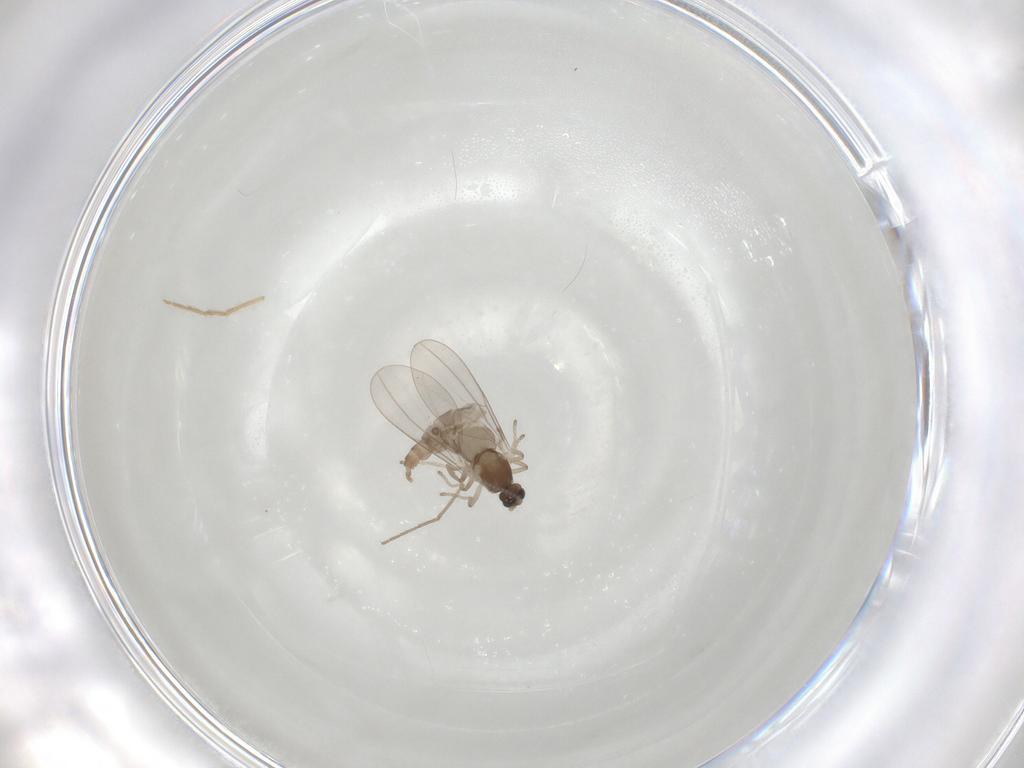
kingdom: Animalia
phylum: Arthropoda
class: Insecta
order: Diptera
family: Cecidomyiidae
